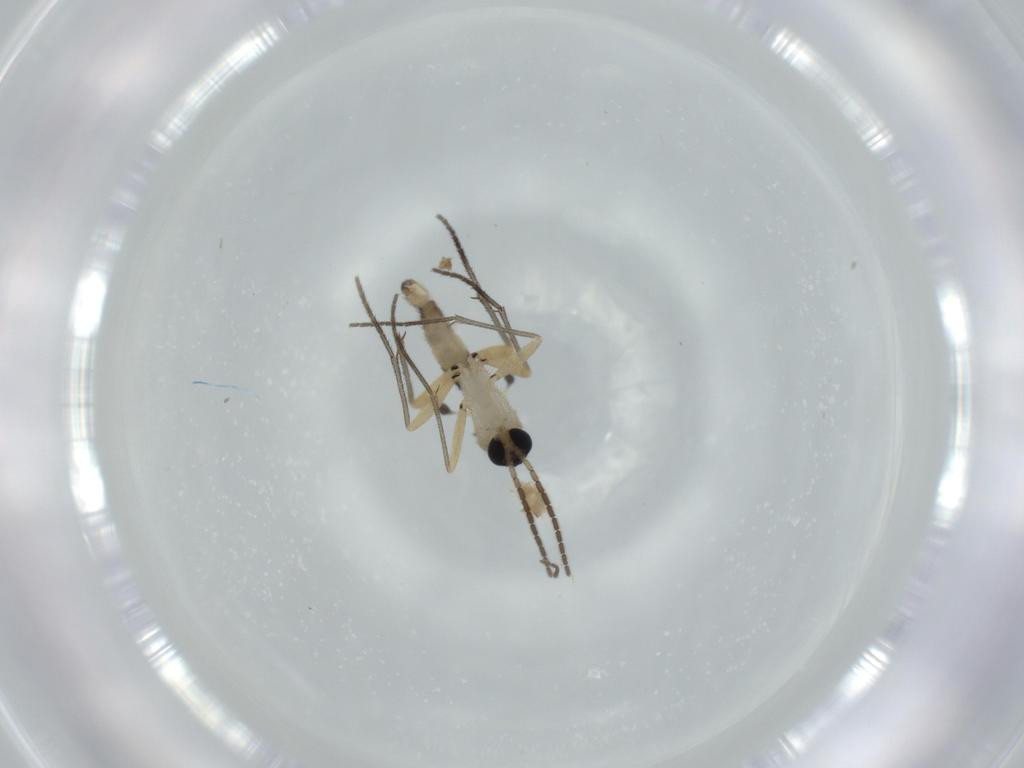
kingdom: Animalia
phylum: Arthropoda
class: Insecta
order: Diptera
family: Sciaridae
